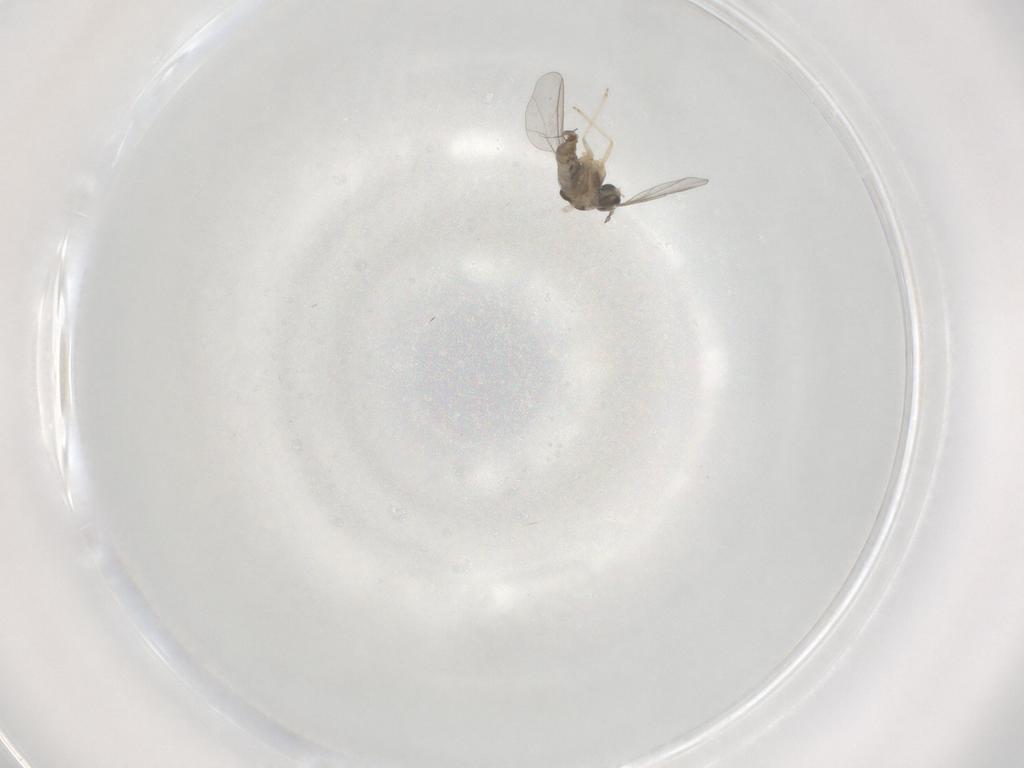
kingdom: Animalia
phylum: Arthropoda
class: Insecta
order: Diptera
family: Cecidomyiidae
